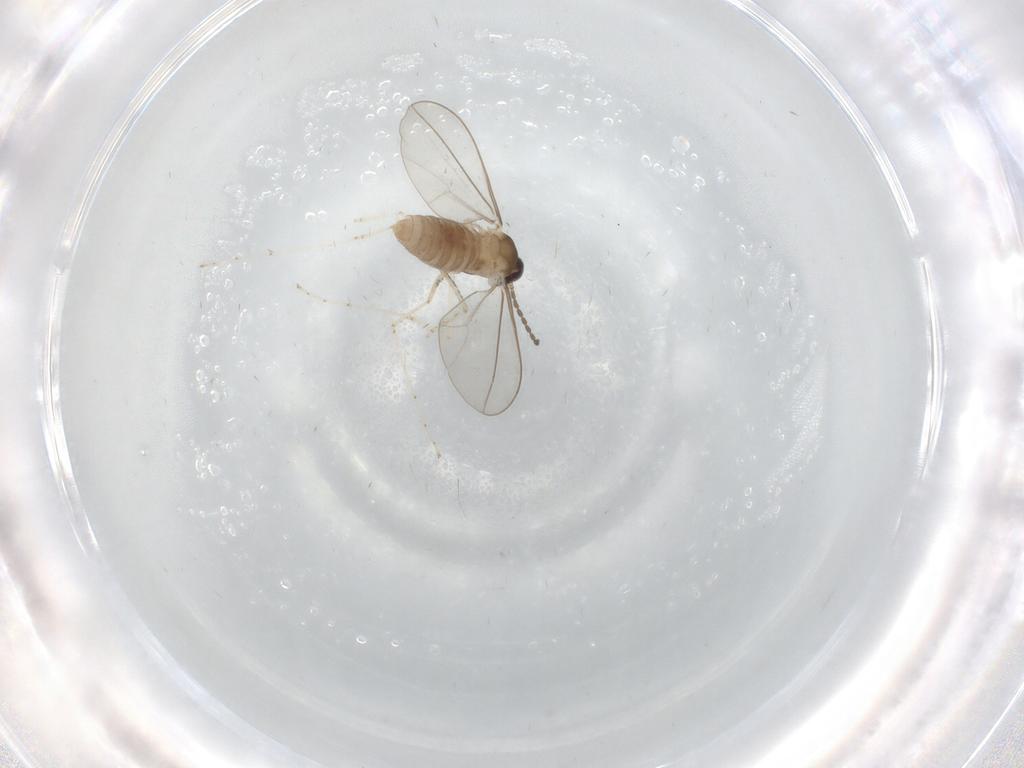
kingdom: Animalia
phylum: Arthropoda
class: Insecta
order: Diptera
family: Cecidomyiidae
